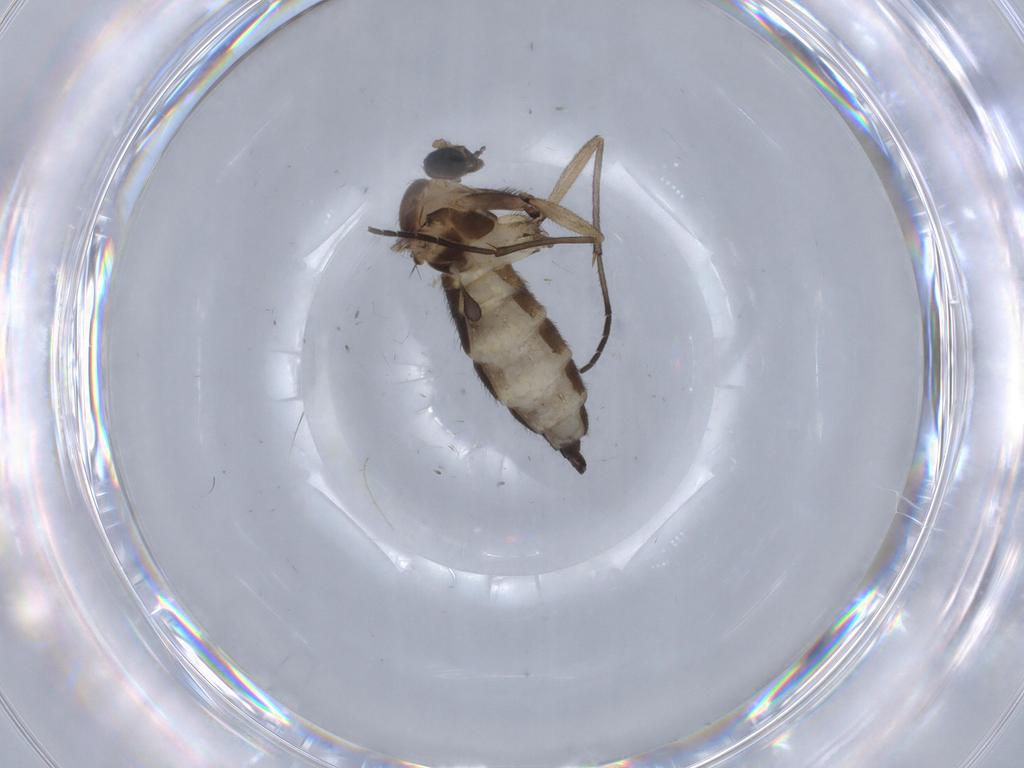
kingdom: Animalia
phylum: Arthropoda
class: Insecta
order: Diptera
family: Sciaridae
